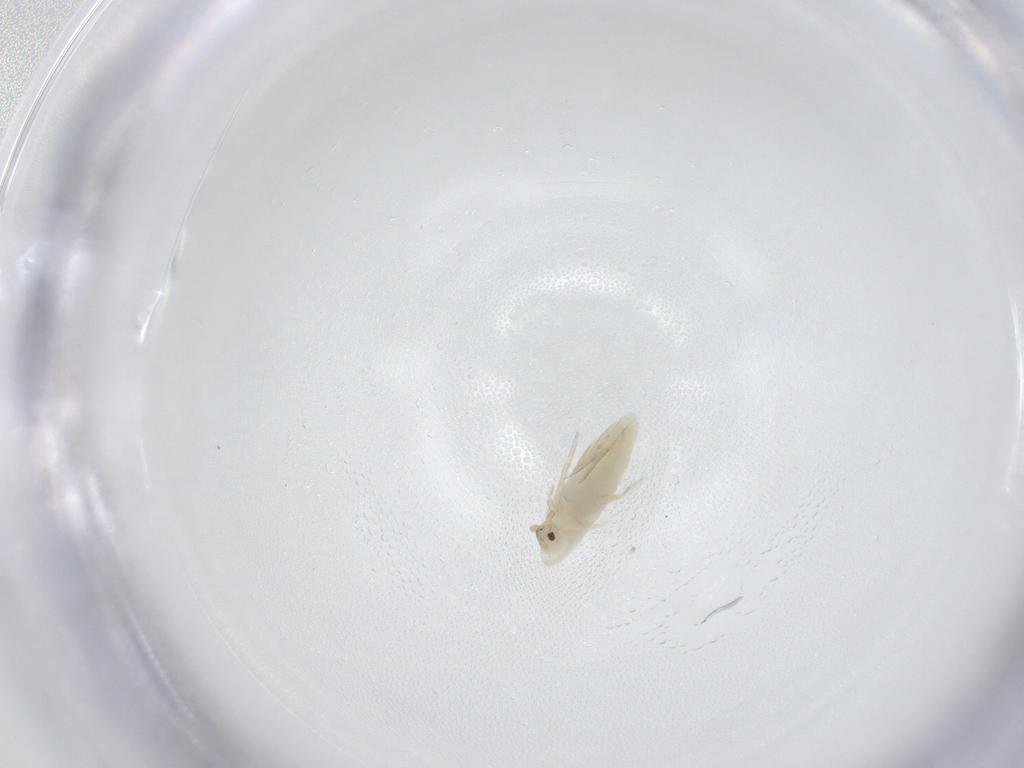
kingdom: Animalia
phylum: Arthropoda
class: Collembola
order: Entomobryomorpha
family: Entomobryidae
